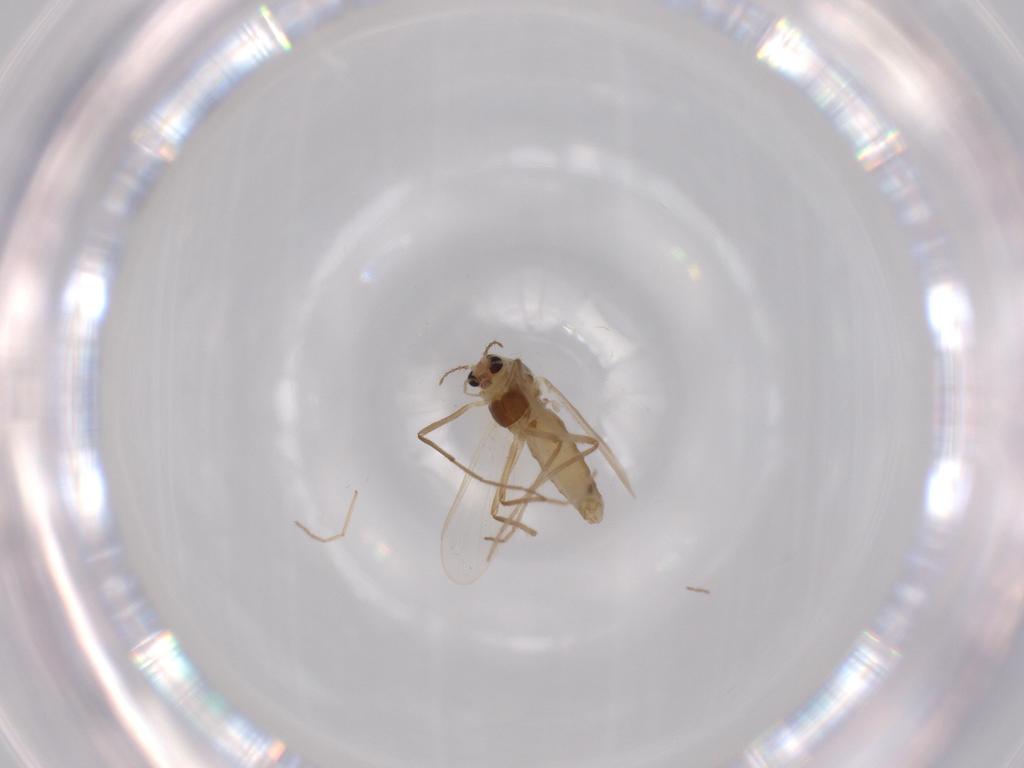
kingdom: Animalia
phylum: Arthropoda
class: Insecta
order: Diptera
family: Chironomidae
